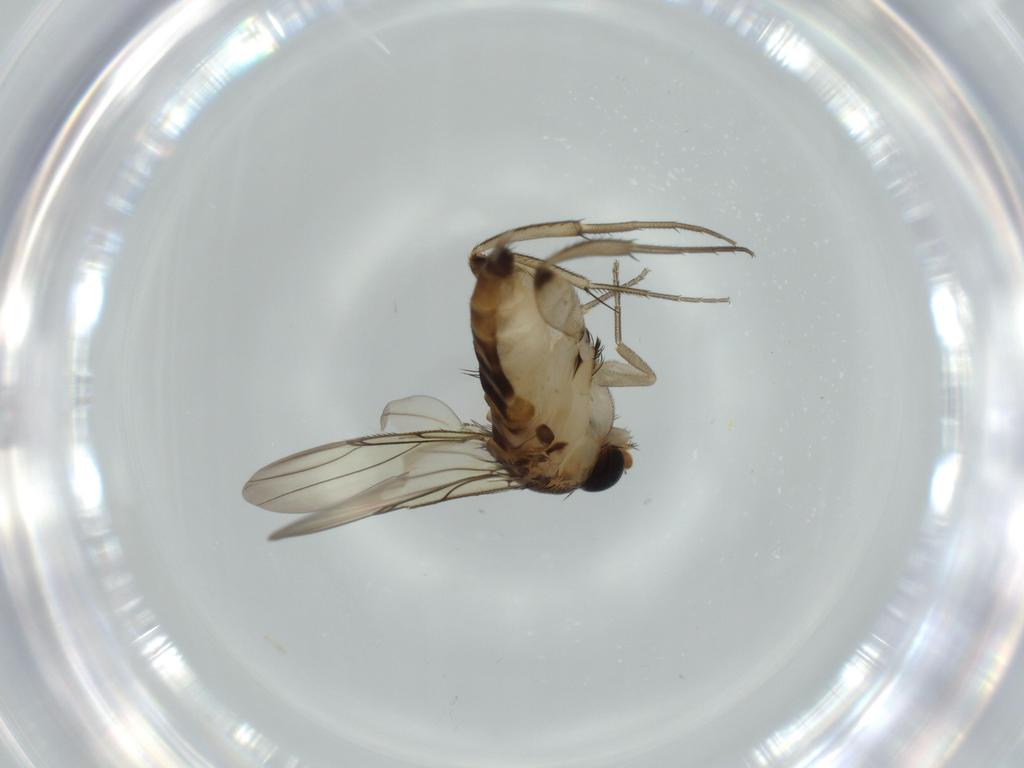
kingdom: Animalia
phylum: Arthropoda
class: Insecta
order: Diptera
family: Phoridae
